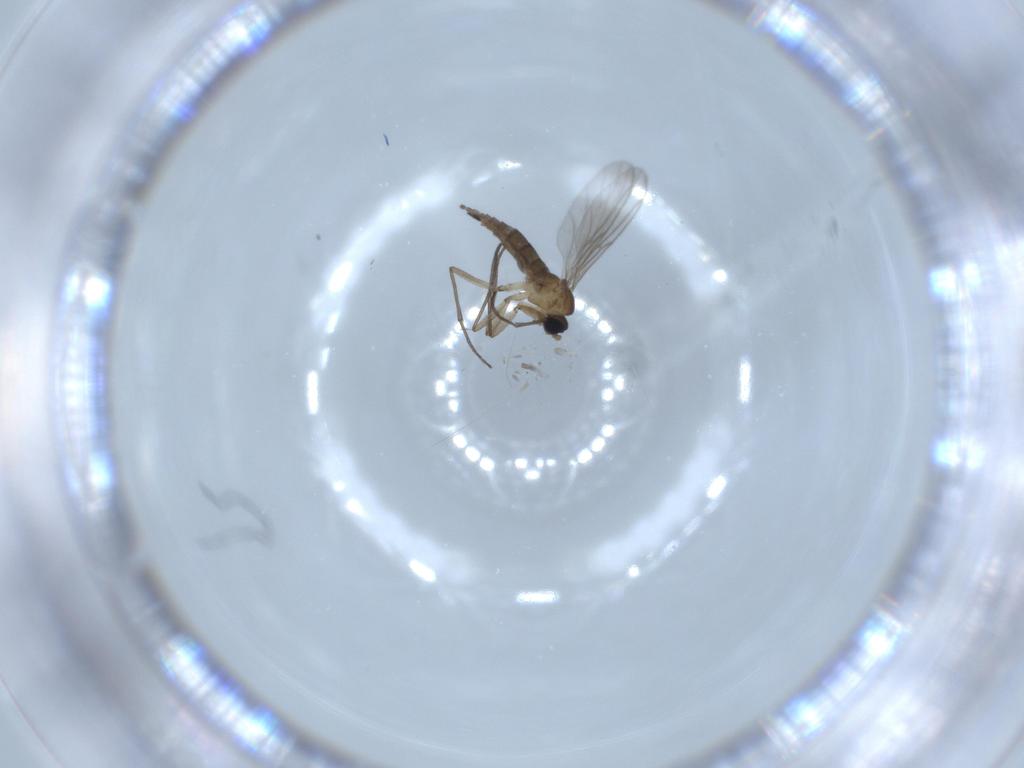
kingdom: Animalia
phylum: Arthropoda
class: Insecta
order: Diptera
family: Sciaridae
